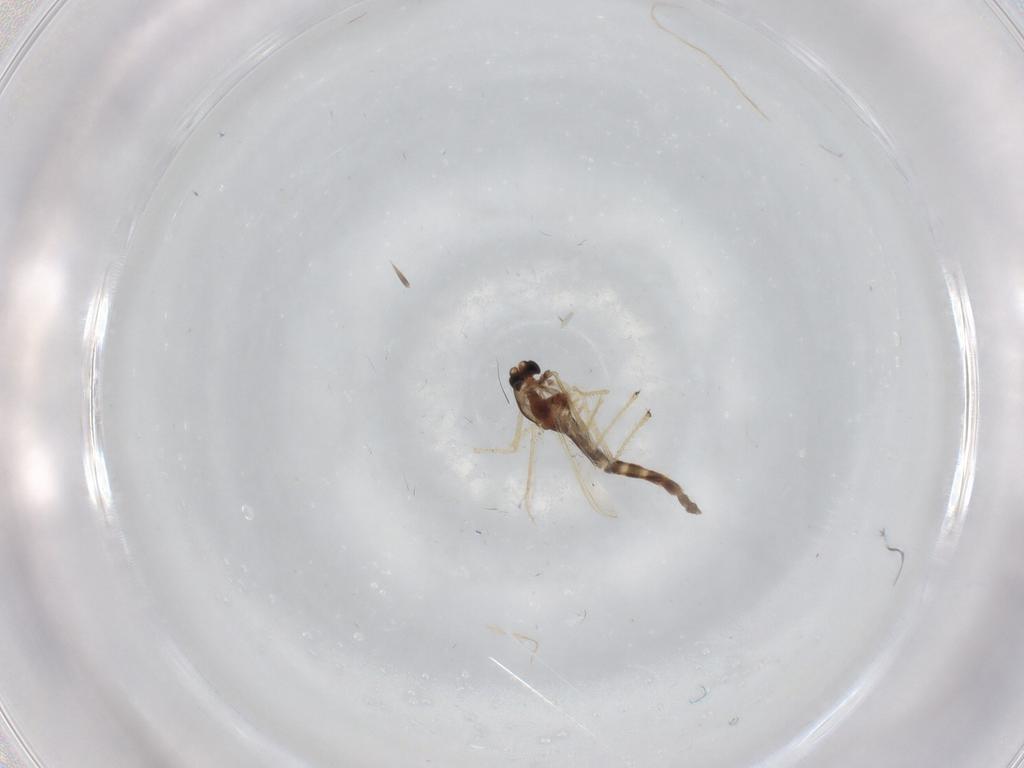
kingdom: Animalia
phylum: Arthropoda
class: Insecta
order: Diptera
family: Chironomidae
